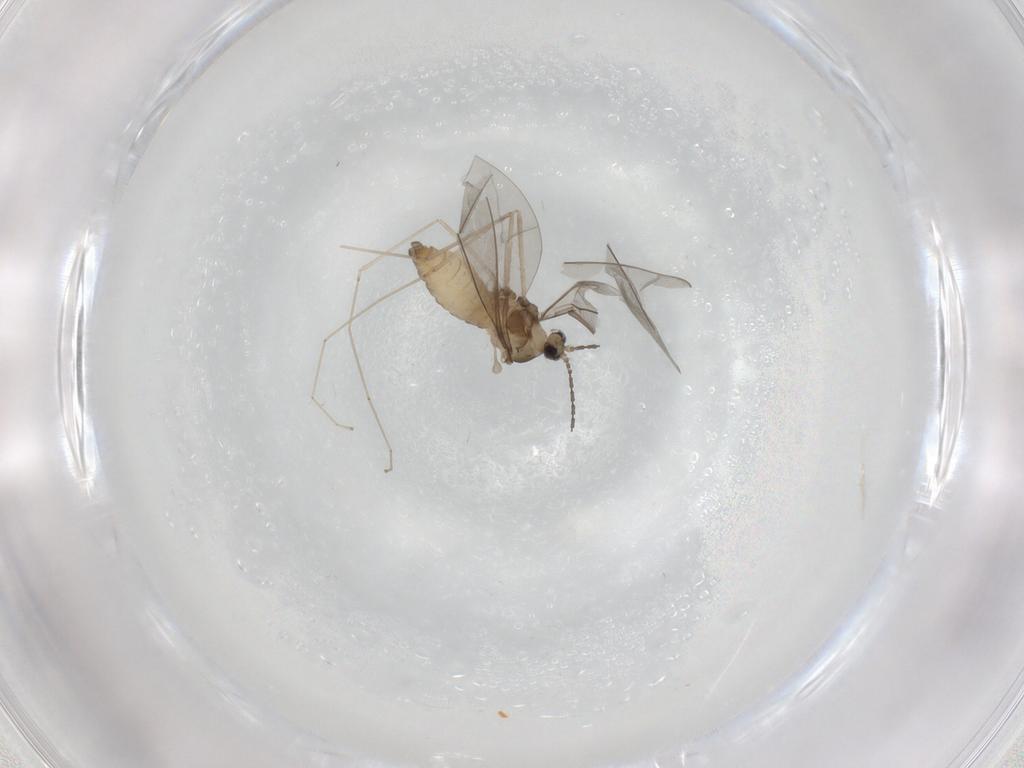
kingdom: Animalia
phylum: Arthropoda
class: Insecta
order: Diptera
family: Cecidomyiidae
